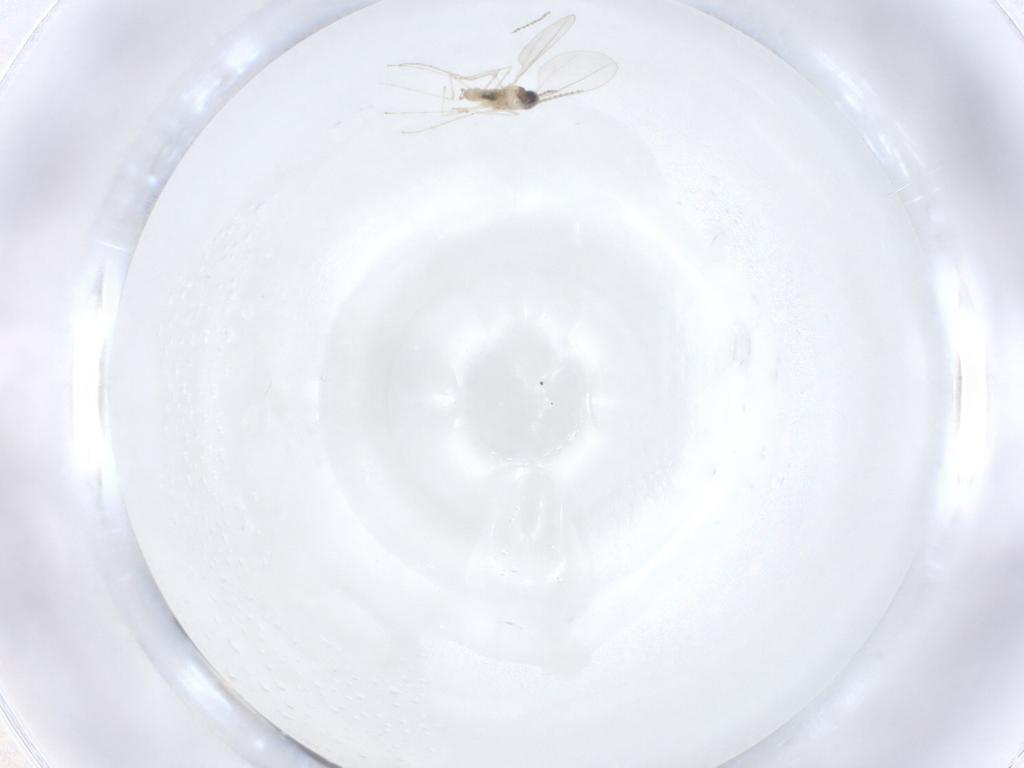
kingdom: Animalia
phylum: Arthropoda
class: Insecta
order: Diptera
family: Cecidomyiidae
